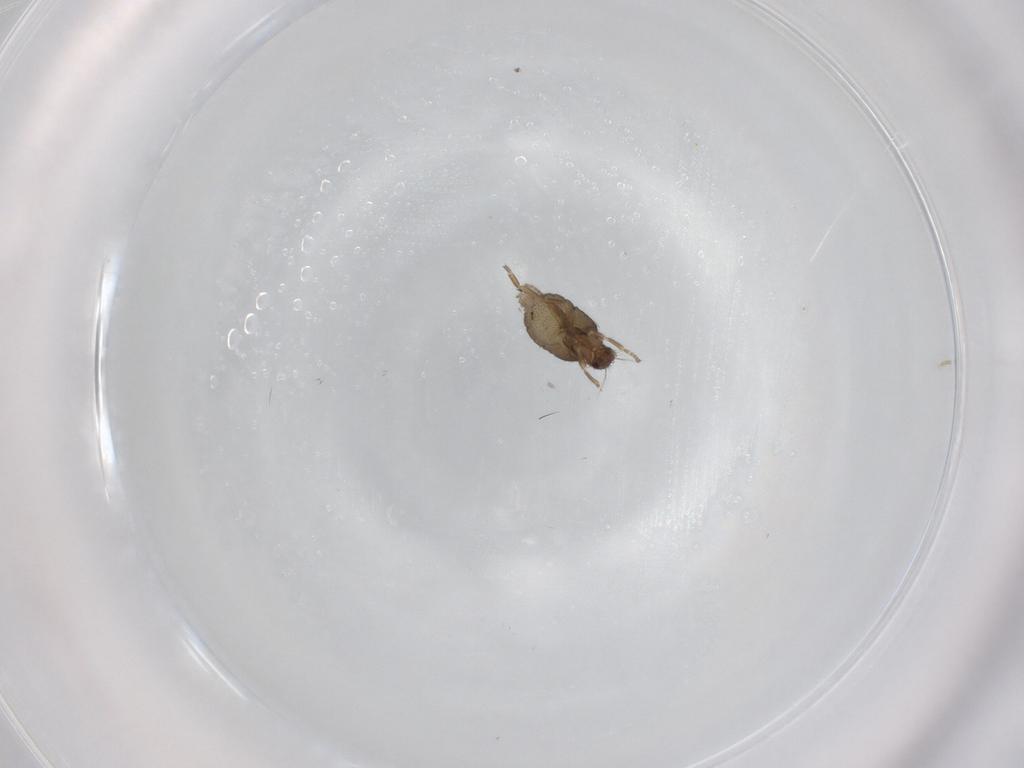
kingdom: Animalia
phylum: Arthropoda
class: Insecta
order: Diptera
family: Phoridae
